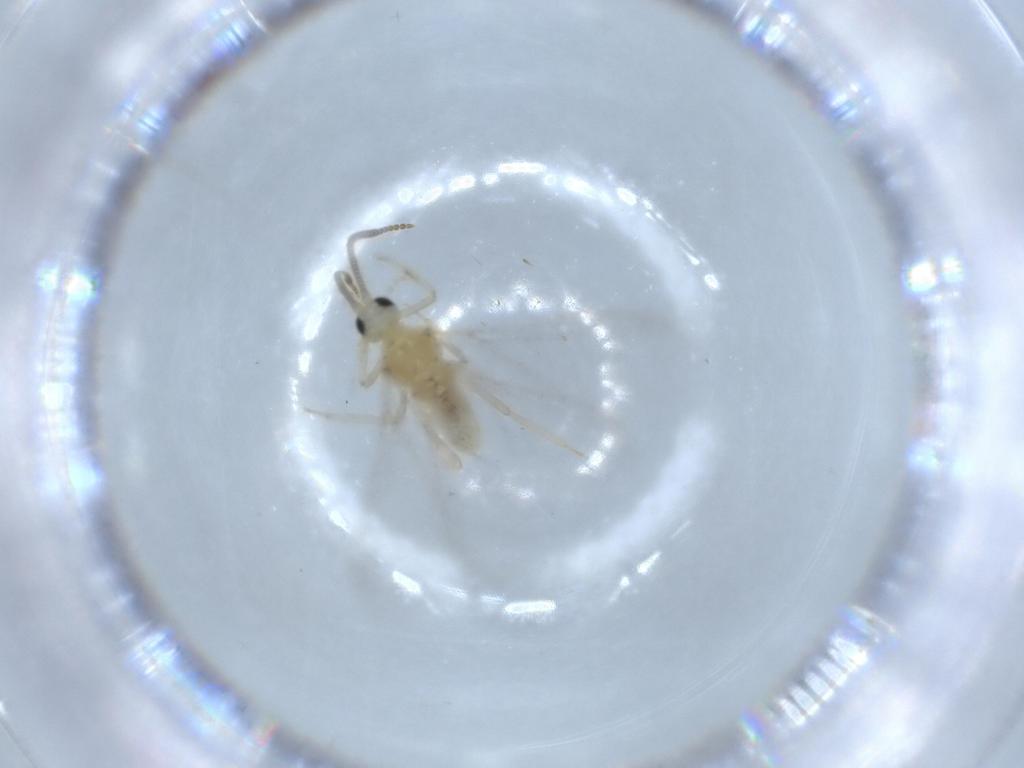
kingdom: Animalia
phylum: Arthropoda
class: Insecta
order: Neuroptera
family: Coniopterygidae
